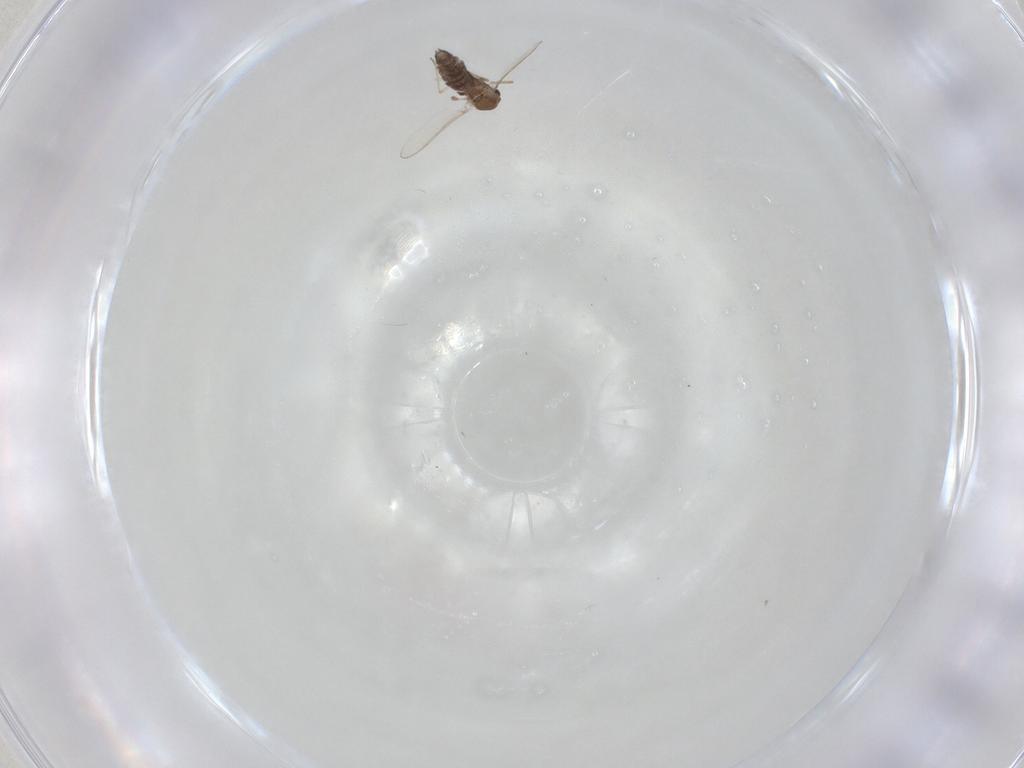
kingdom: Animalia
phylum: Arthropoda
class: Insecta
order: Diptera
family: Chironomidae
